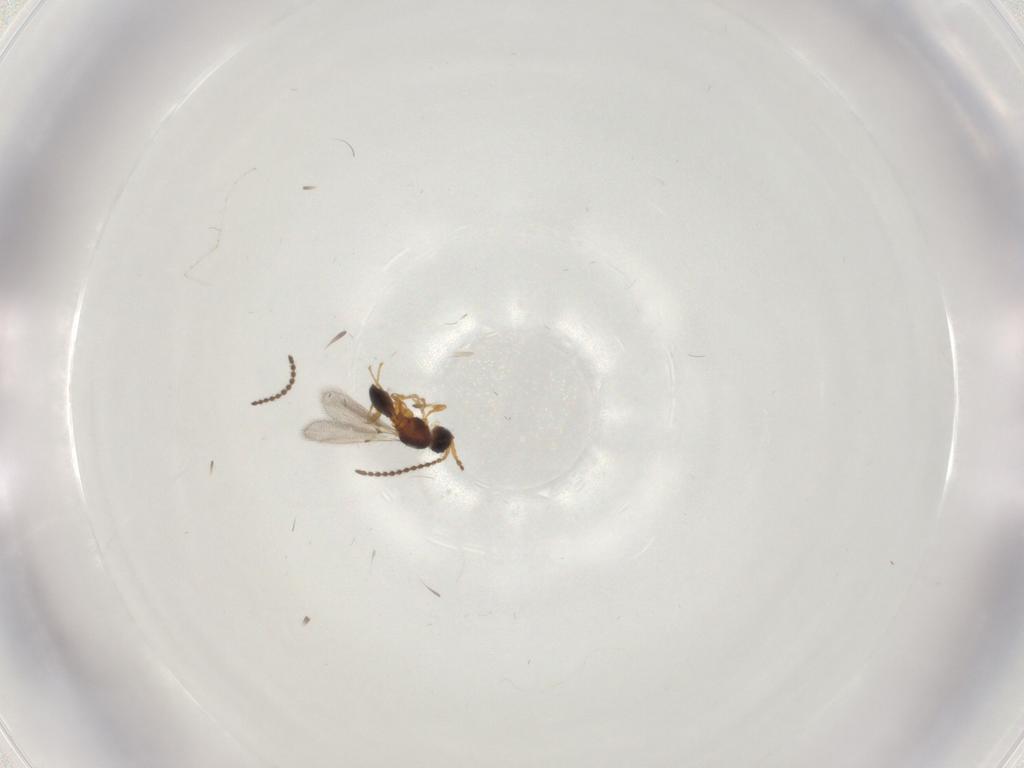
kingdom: Animalia
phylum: Arthropoda
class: Insecta
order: Hymenoptera
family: Diapriidae
